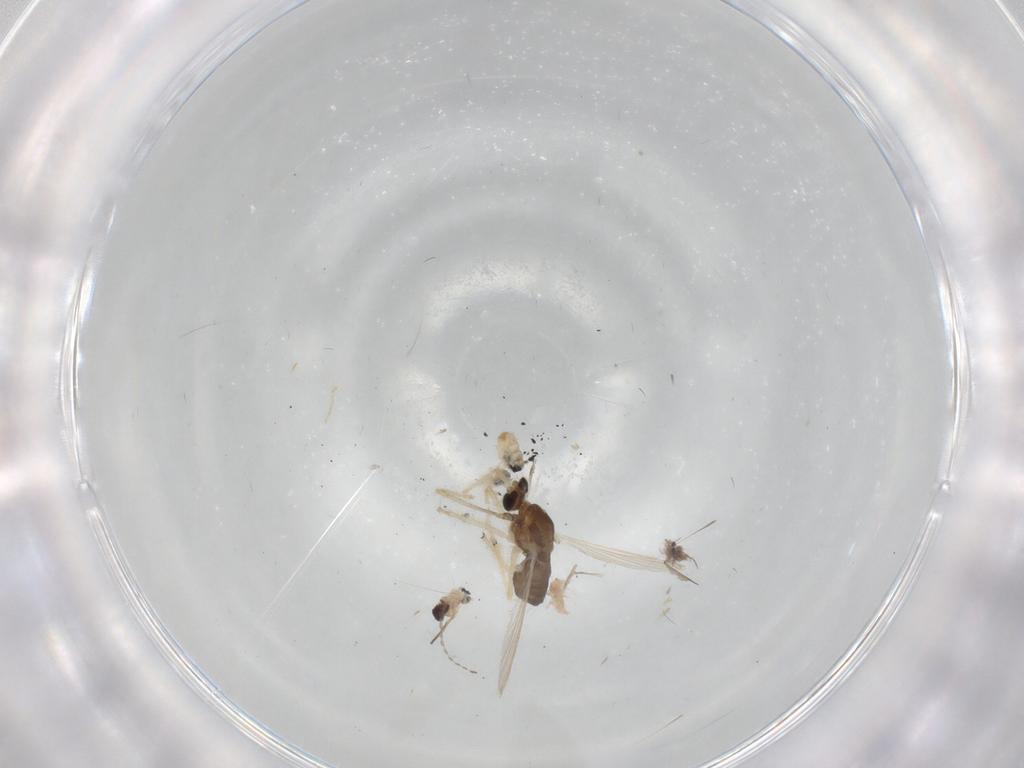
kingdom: Animalia
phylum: Arthropoda
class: Insecta
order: Diptera
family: Chironomidae
